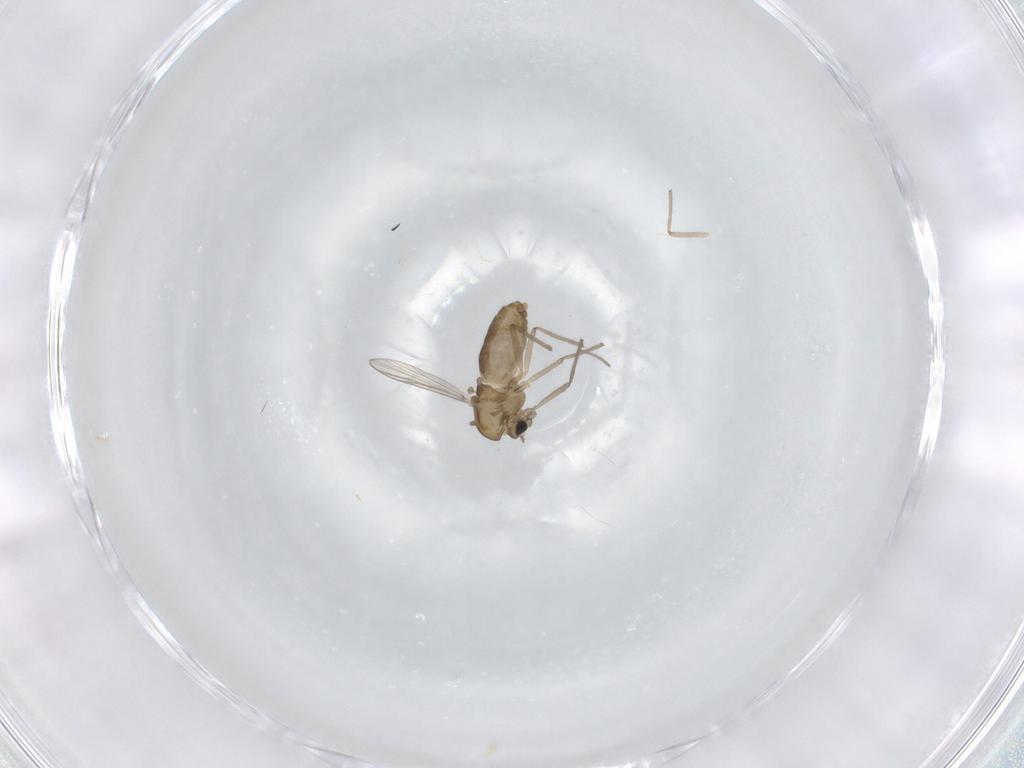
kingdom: Animalia
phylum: Arthropoda
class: Insecta
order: Diptera
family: Chironomidae
